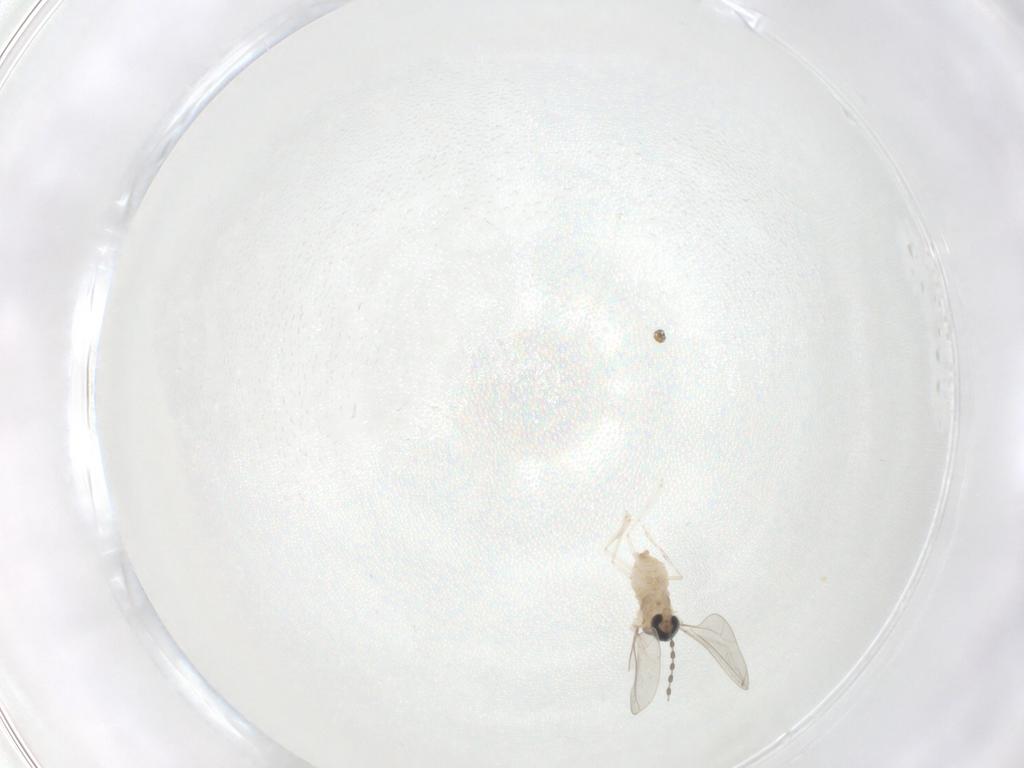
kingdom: Animalia
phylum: Arthropoda
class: Insecta
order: Diptera
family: Cecidomyiidae
